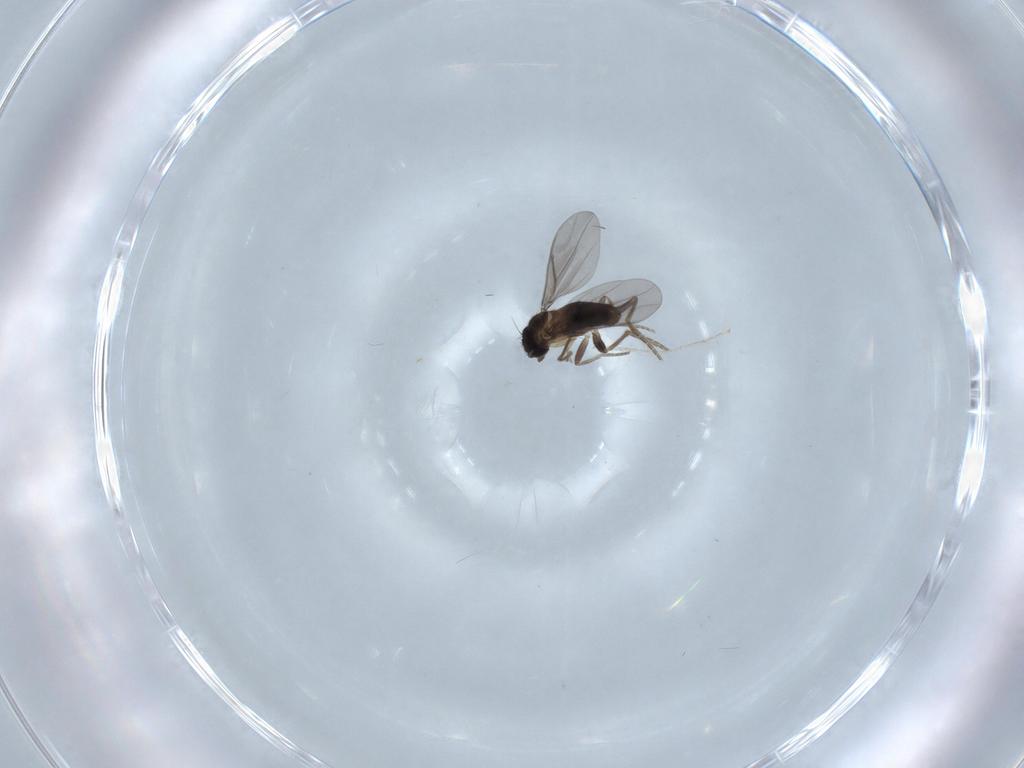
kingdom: Animalia
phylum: Arthropoda
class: Insecta
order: Diptera
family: Cecidomyiidae
